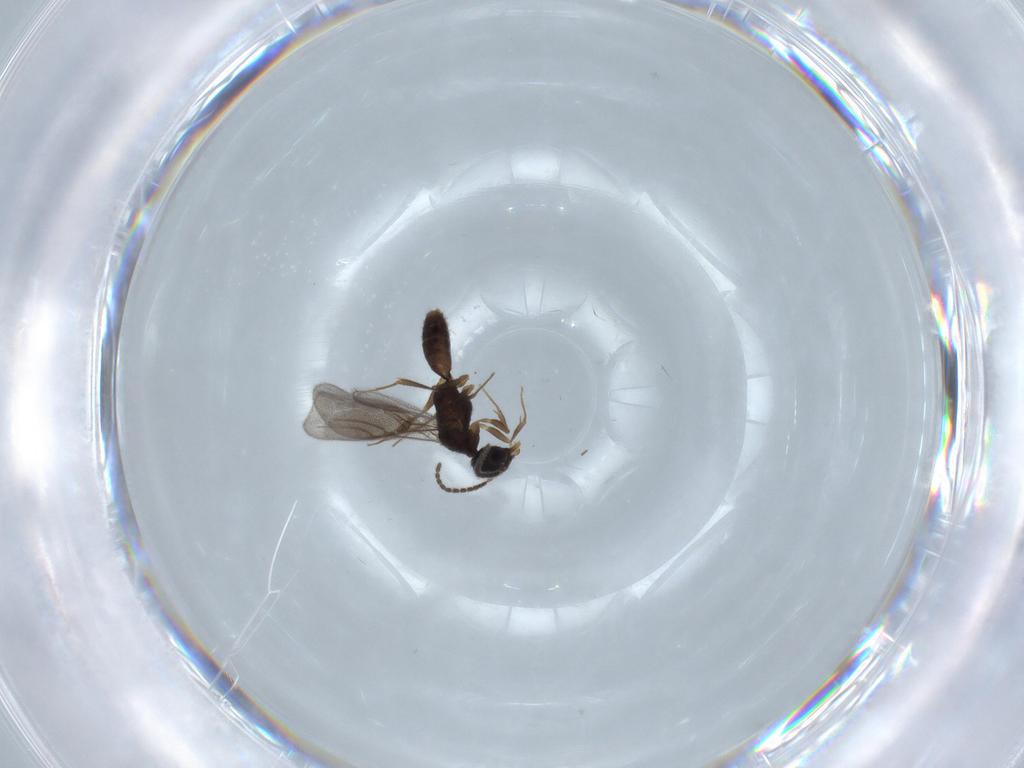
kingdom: Animalia
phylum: Arthropoda
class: Insecta
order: Hymenoptera
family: Bethylidae
